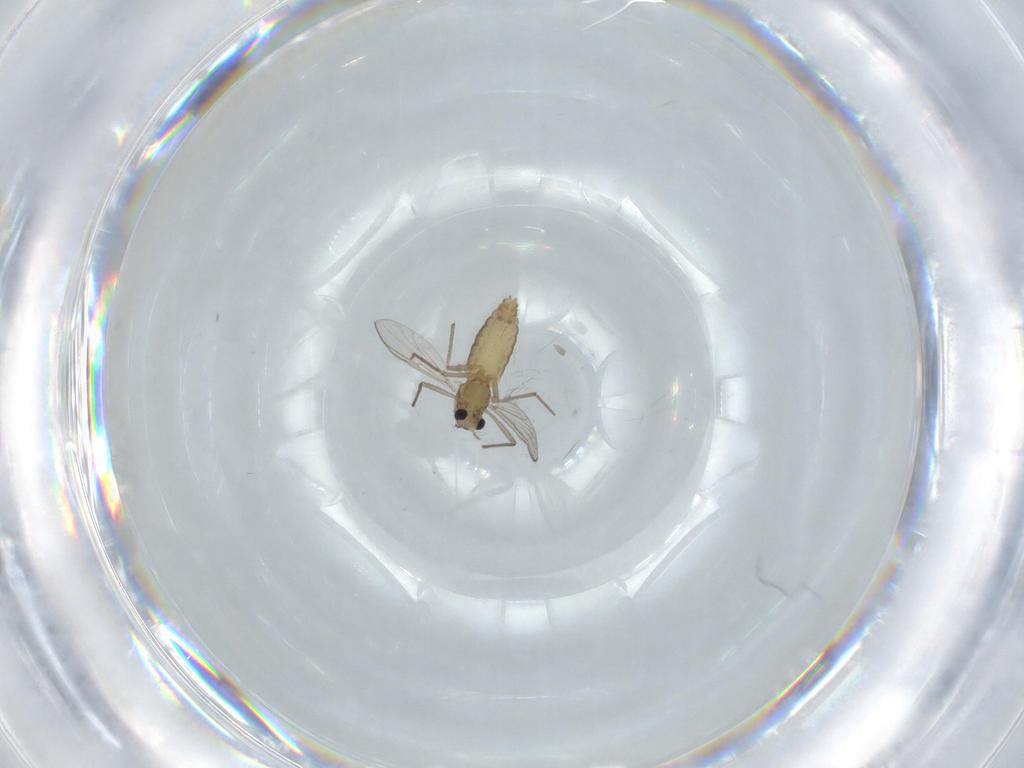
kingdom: Animalia
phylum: Arthropoda
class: Insecta
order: Diptera
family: Chironomidae
